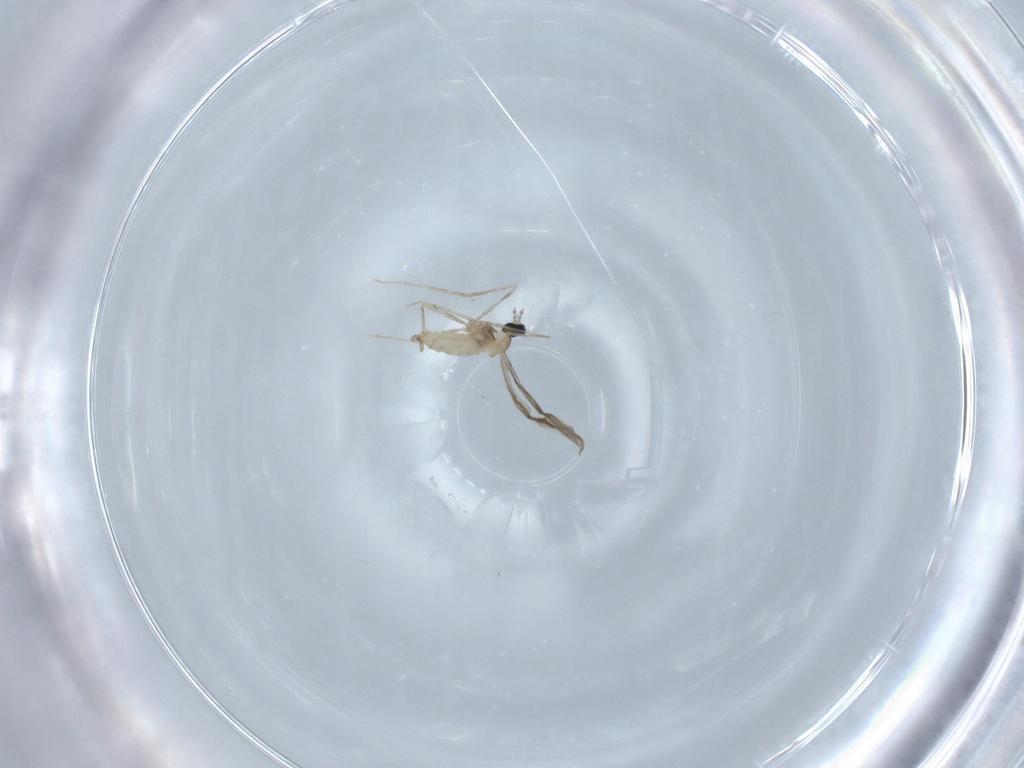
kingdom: Animalia
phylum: Arthropoda
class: Insecta
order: Diptera
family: Cecidomyiidae
